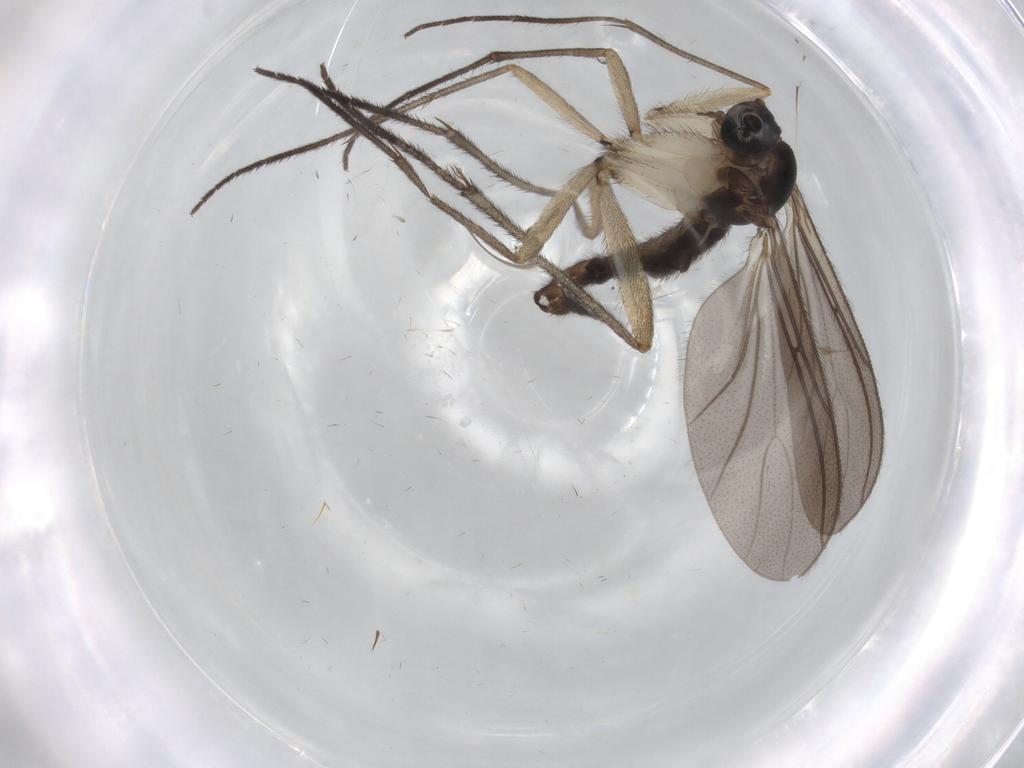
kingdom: Animalia
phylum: Arthropoda
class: Insecta
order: Diptera
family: Sciaridae
